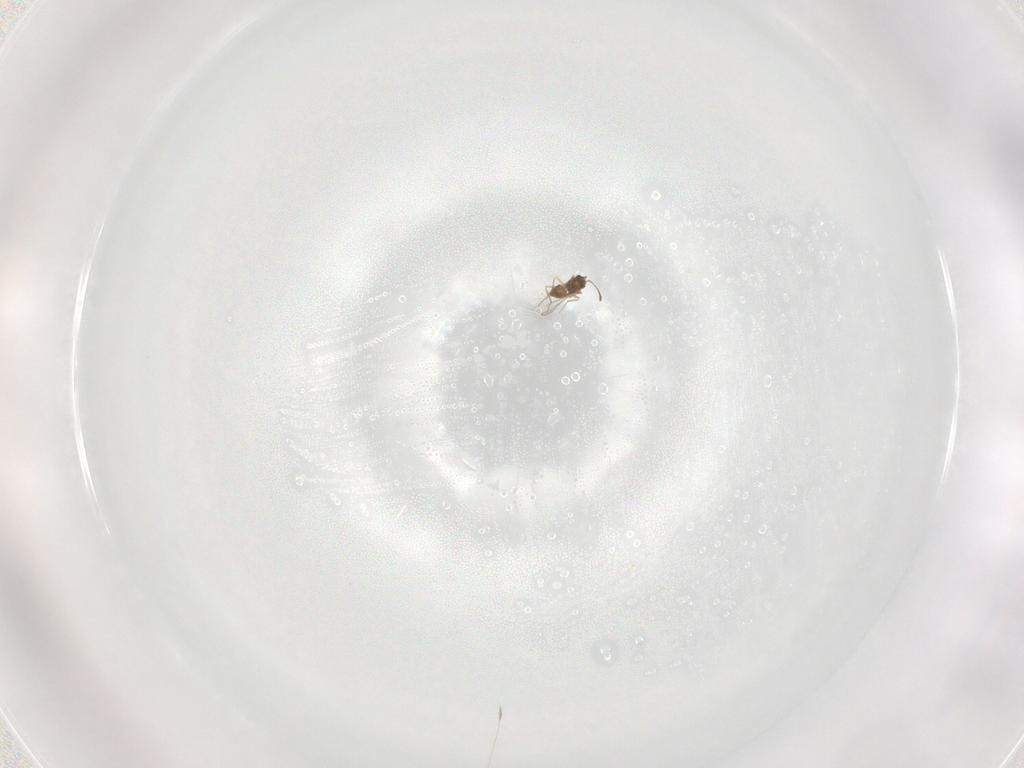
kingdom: Animalia
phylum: Arthropoda
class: Insecta
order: Hymenoptera
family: Mymaridae
